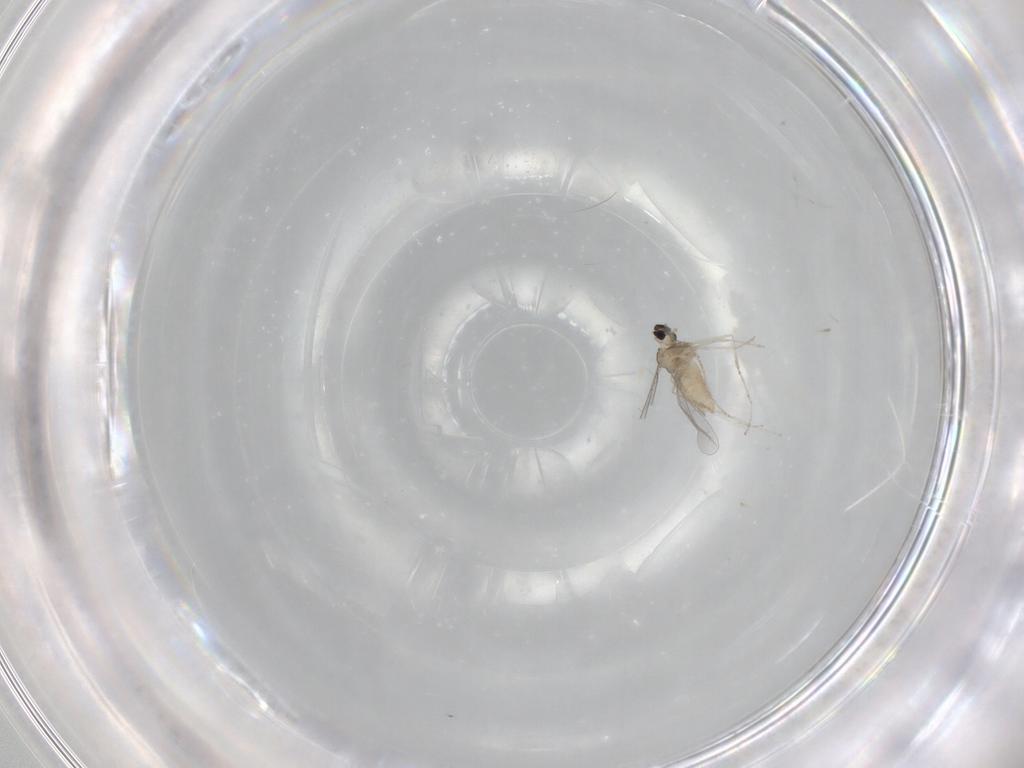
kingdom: Animalia
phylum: Arthropoda
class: Insecta
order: Diptera
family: Cecidomyiidae
